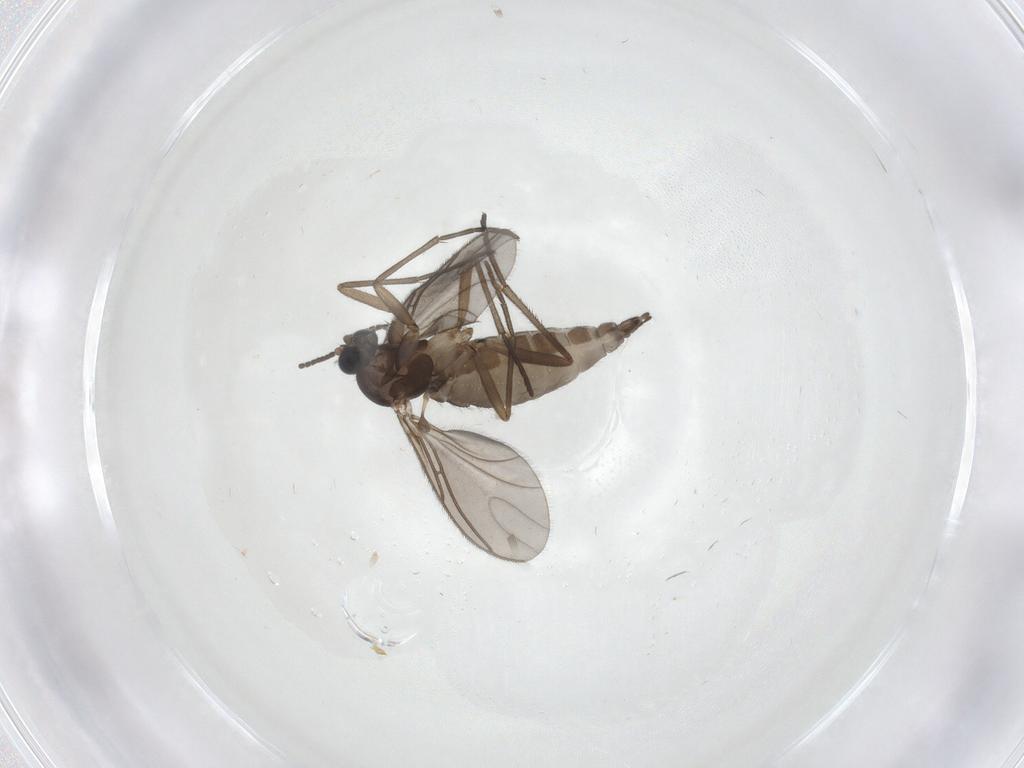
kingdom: Animalia
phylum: Arthropoda
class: Insecta
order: Diptera
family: Sciaridae
